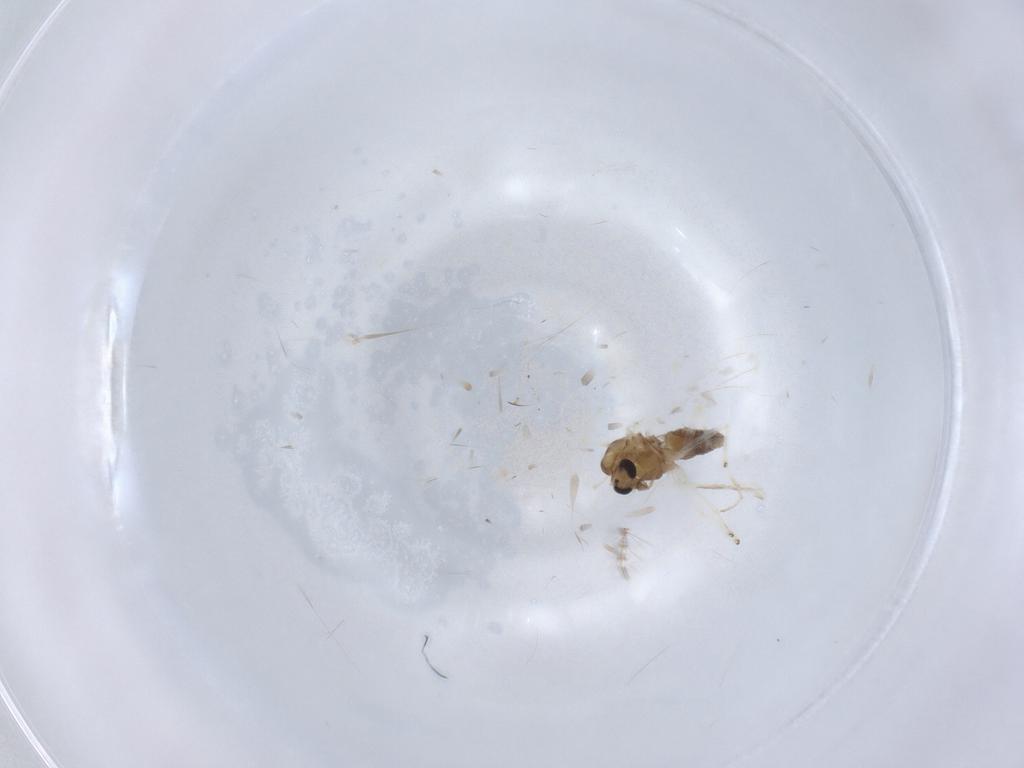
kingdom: Animalia
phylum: Arthropoda
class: Insecta
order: Diptera
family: Chironomidae
